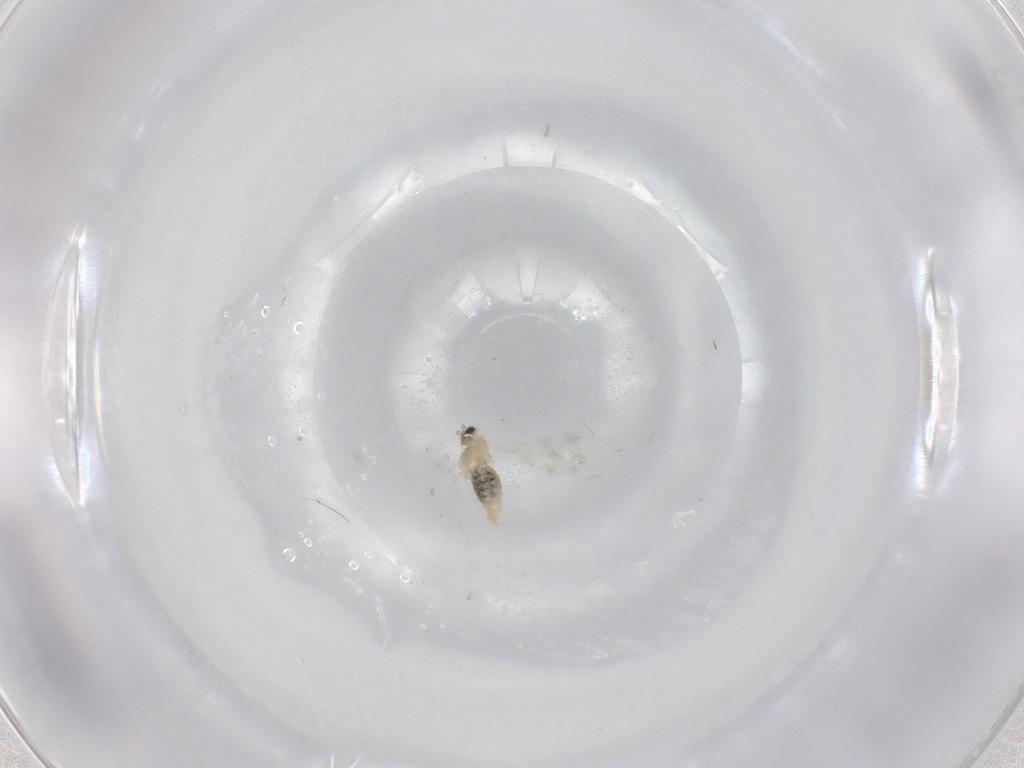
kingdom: Animalia
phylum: Arthropoda
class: Insecta
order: Diptera
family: Cecidomyiidae
